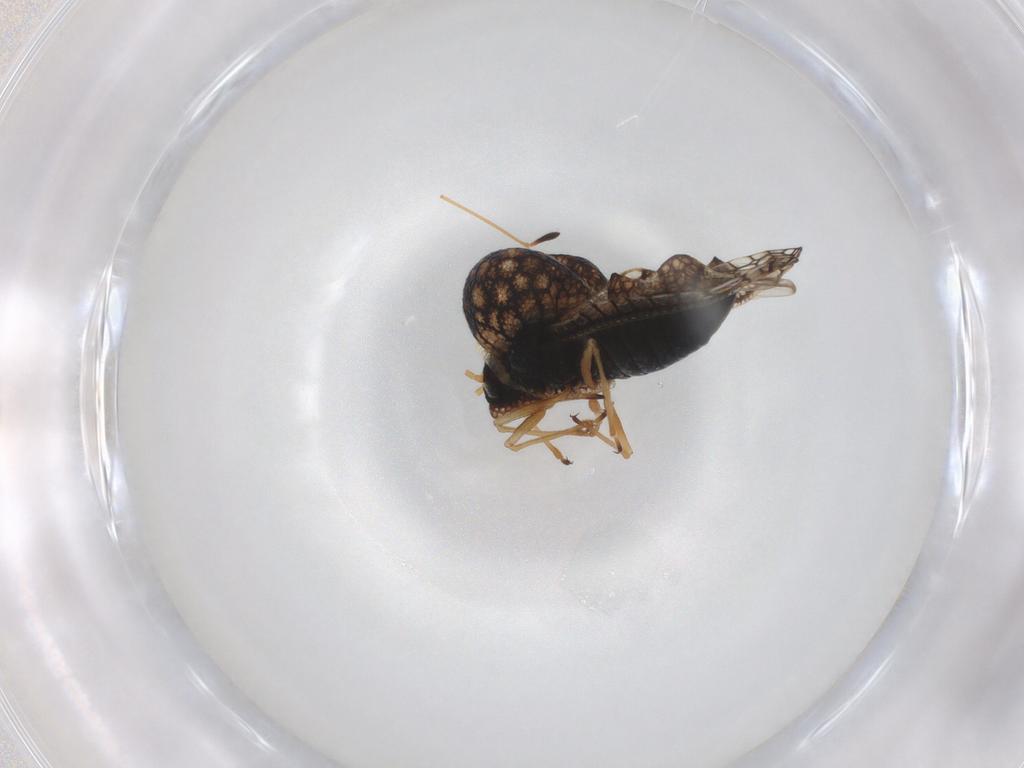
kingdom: Animalia
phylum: Arthropoda
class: Insecta
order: Hemiptera
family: Tingidae
